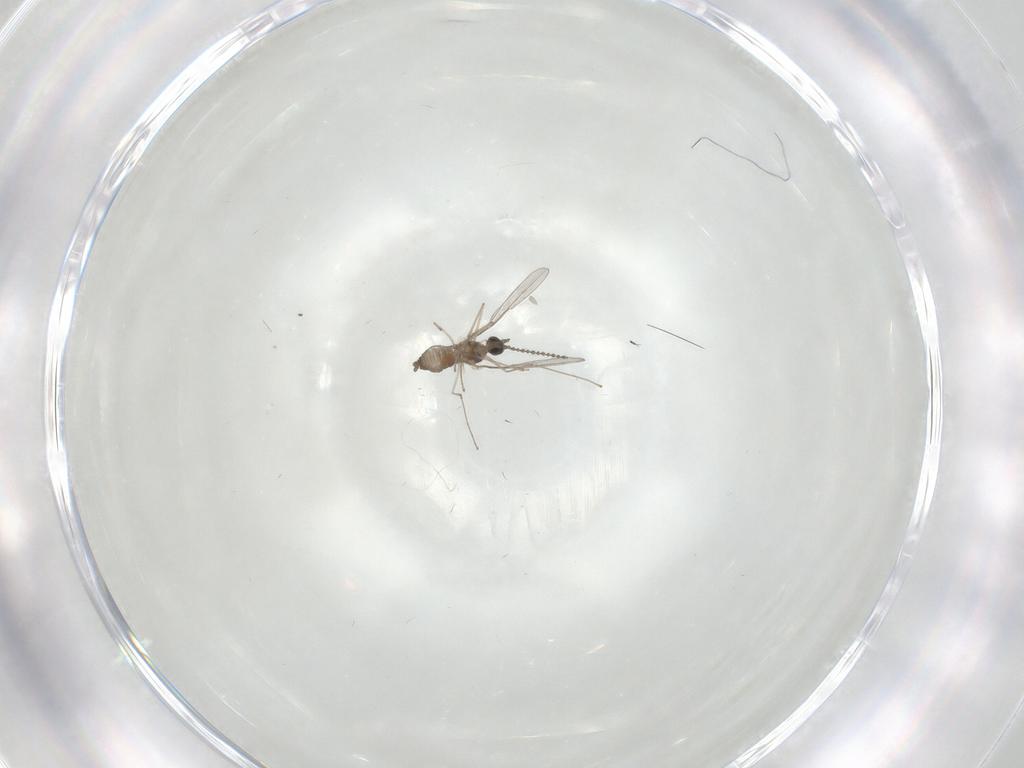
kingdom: Animalia
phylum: Arthropoda
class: Insecta
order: Diptera
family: Cecidomyiidae
